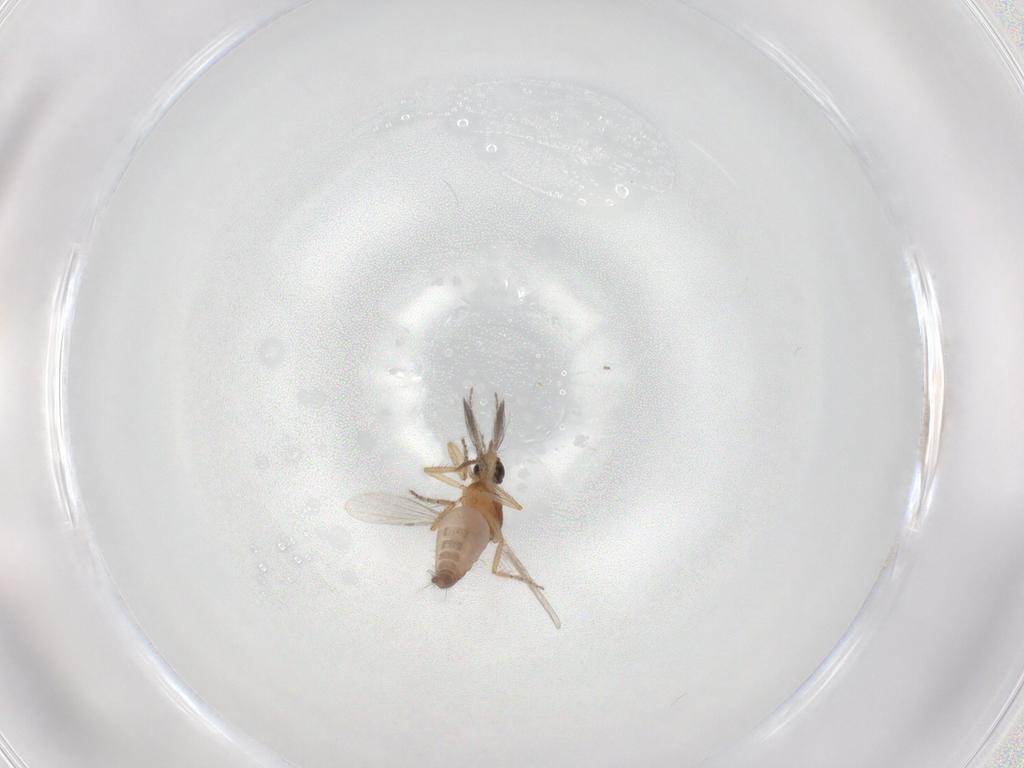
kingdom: Animalia
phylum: Arthropoda
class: Insecta
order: Diptera
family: Ceratopogonidae
